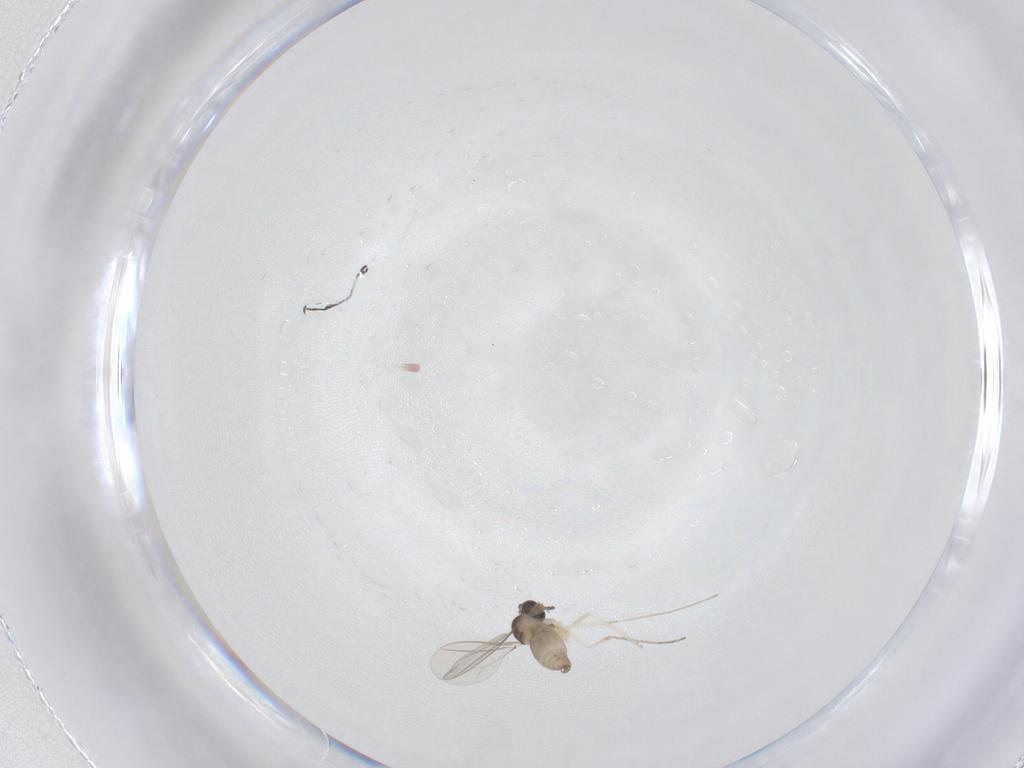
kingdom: Animalia
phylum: Arthropoda
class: Insecta
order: Diptera
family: Cecidomyiidae
